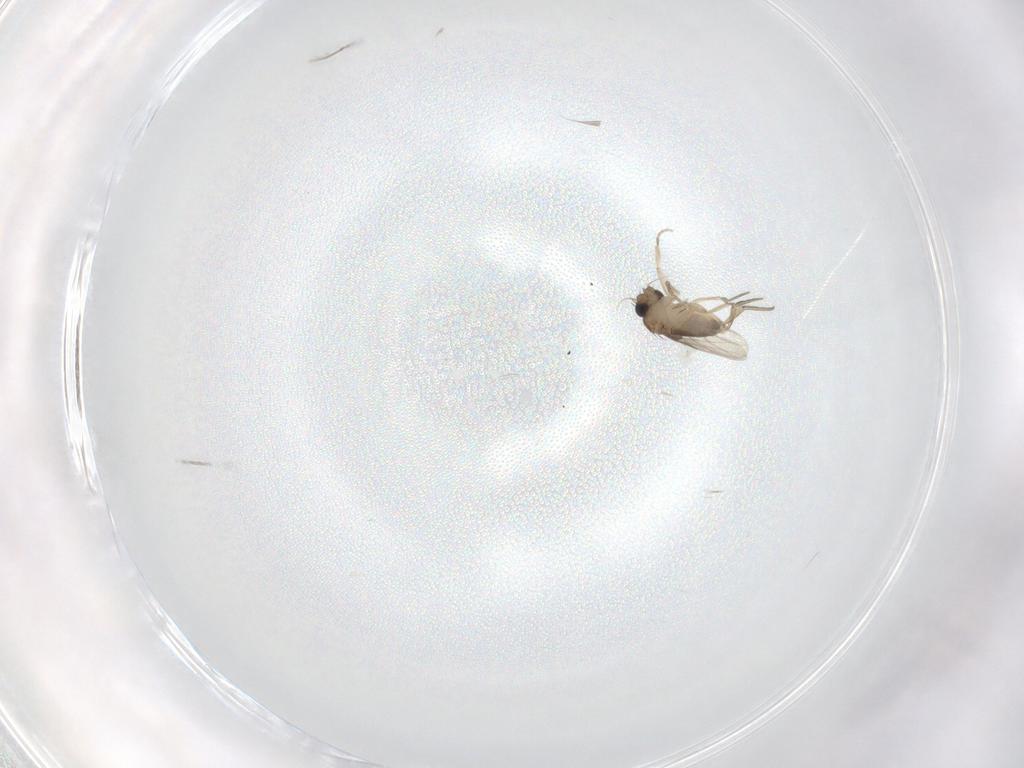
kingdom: Animalia
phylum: Arthropoda
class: Insecta
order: Diptera
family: Phoridae
